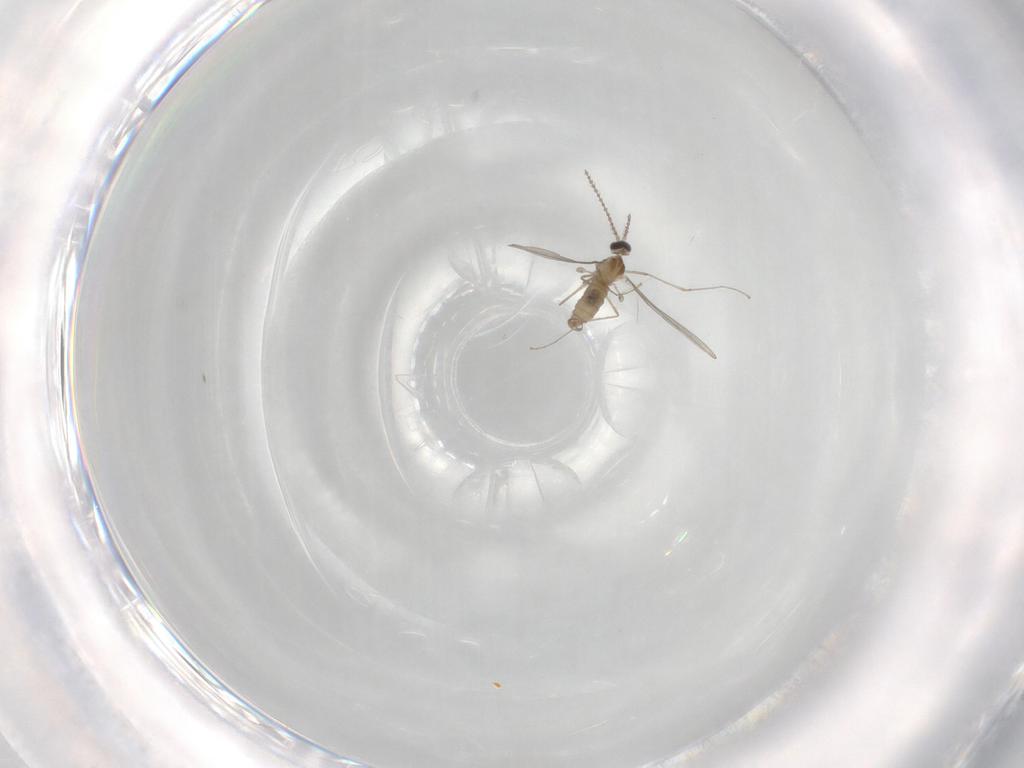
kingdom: Animalia
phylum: Arthropoda
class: Insecta
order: Diptera
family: Cecidomyiidae
